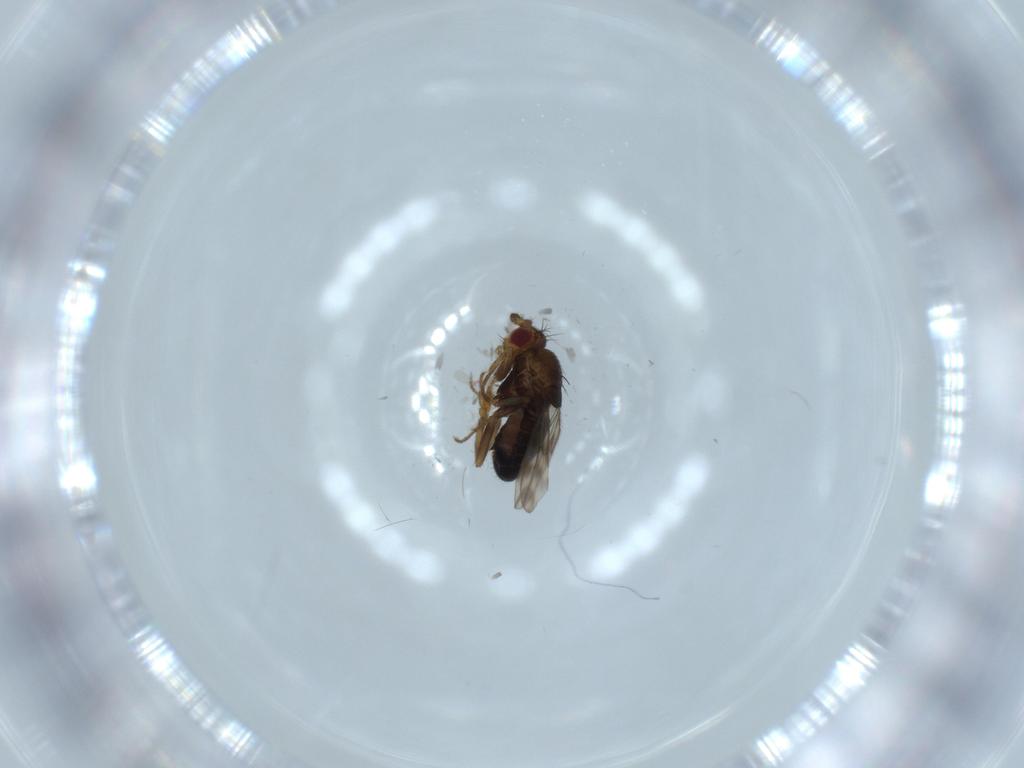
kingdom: Animalia
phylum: Arthropoda
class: Insecta
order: Diptera
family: Sphaeroceridae
